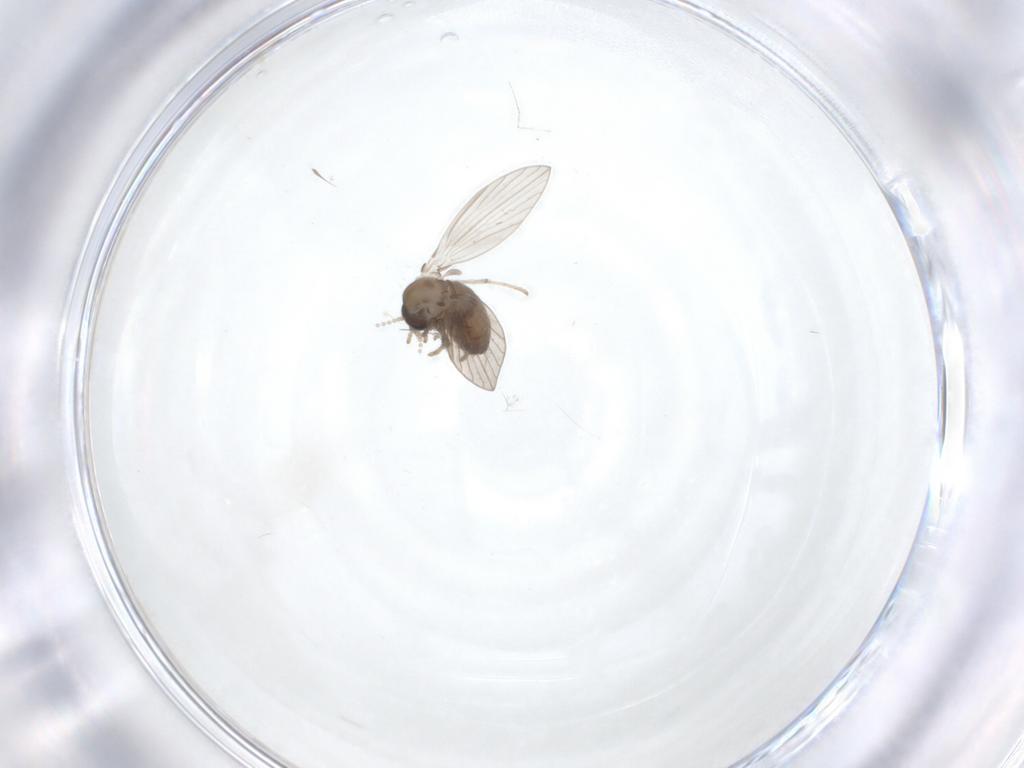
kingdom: Animalia
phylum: Arthropoda
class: Insecta
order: Diptera
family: Psychodidae
